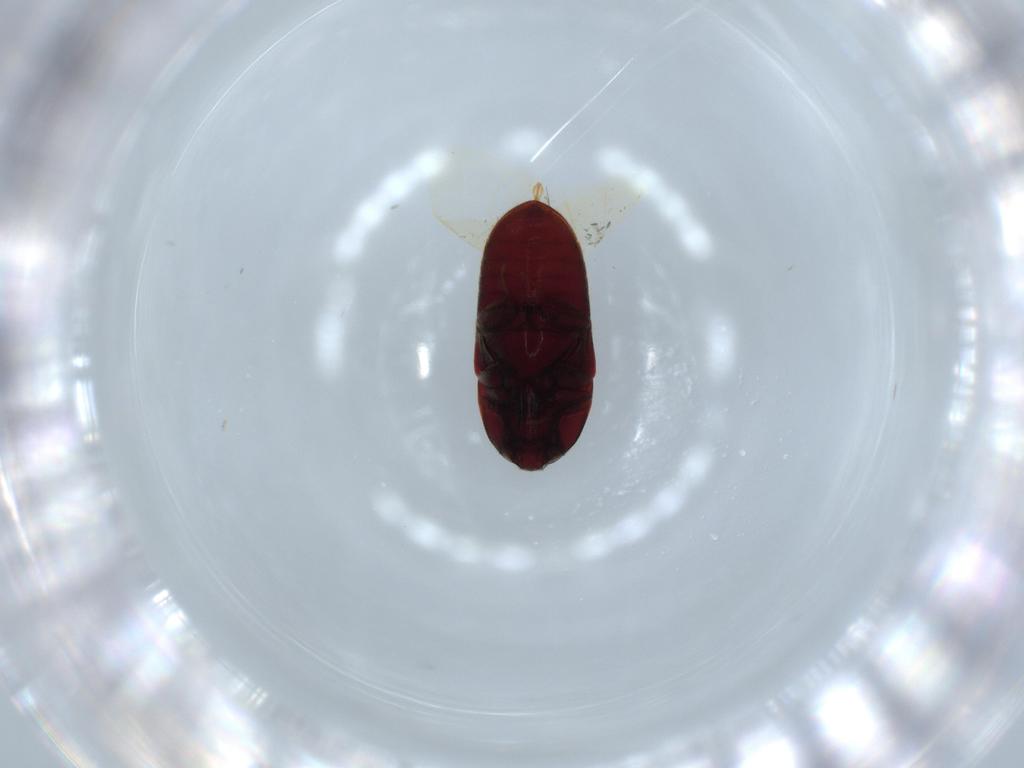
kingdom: Animalia
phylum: Arthropoda
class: Insecta
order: Coleoptera
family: Throscidae
